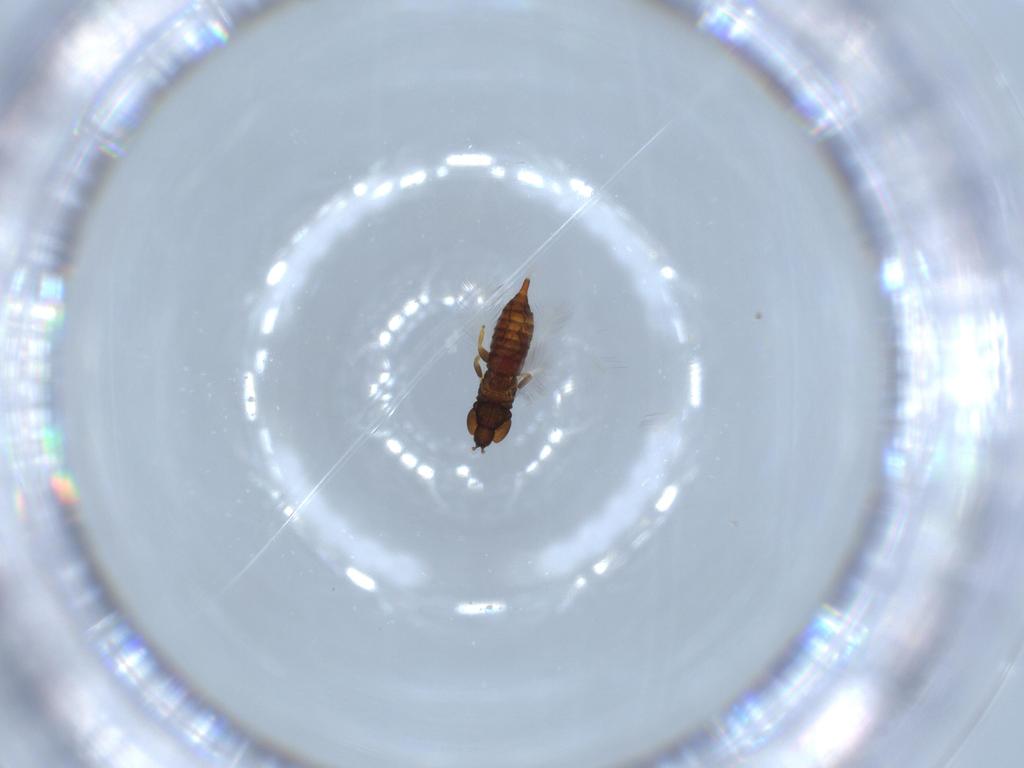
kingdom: Animalia
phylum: Arthropoda
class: Insecta
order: Thysanoptera
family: Phlaeothripidae
